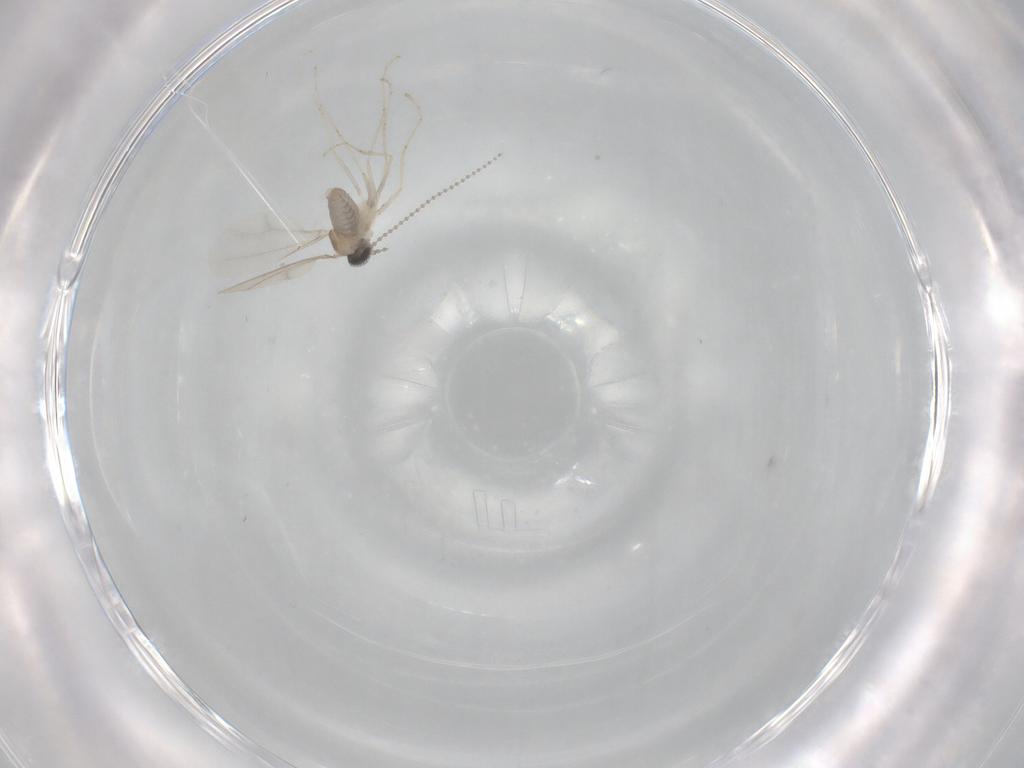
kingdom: Animalia
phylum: Arthropoda
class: Insecta
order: Diptera
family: Cecidomyiidae
